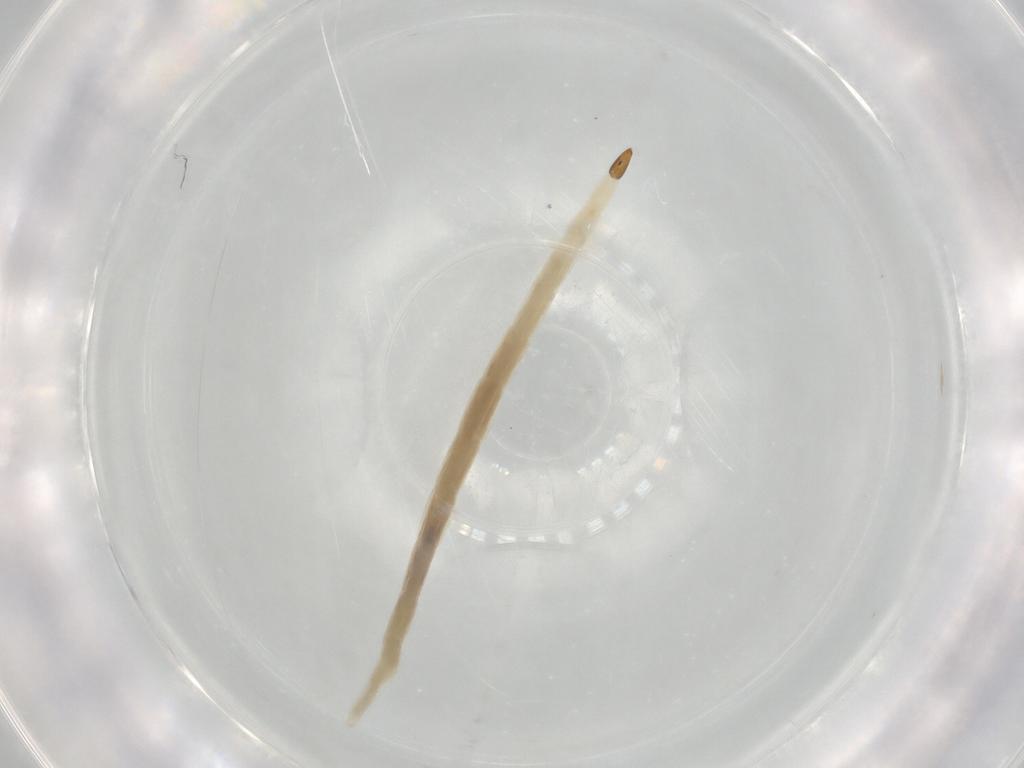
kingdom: Animalia
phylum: Arthropoda
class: Insecta
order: Diptera
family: Ceratopogonidae
